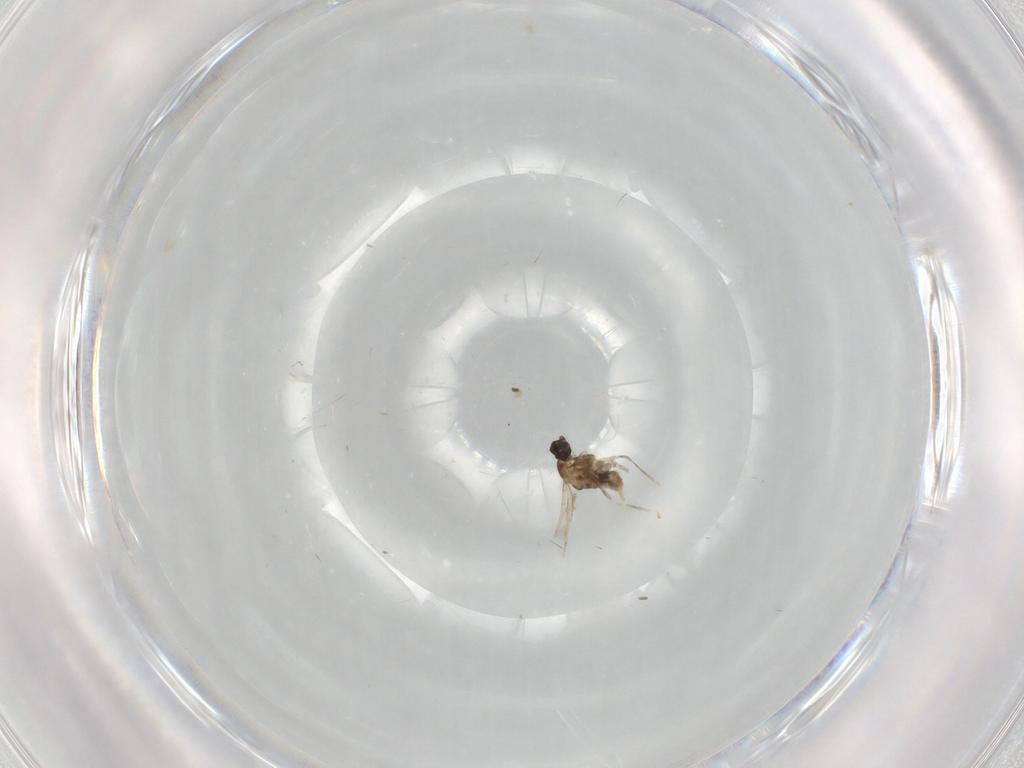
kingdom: Animalia
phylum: Arthropoda
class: Insecta
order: Diptera
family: Cecidomyiidae
